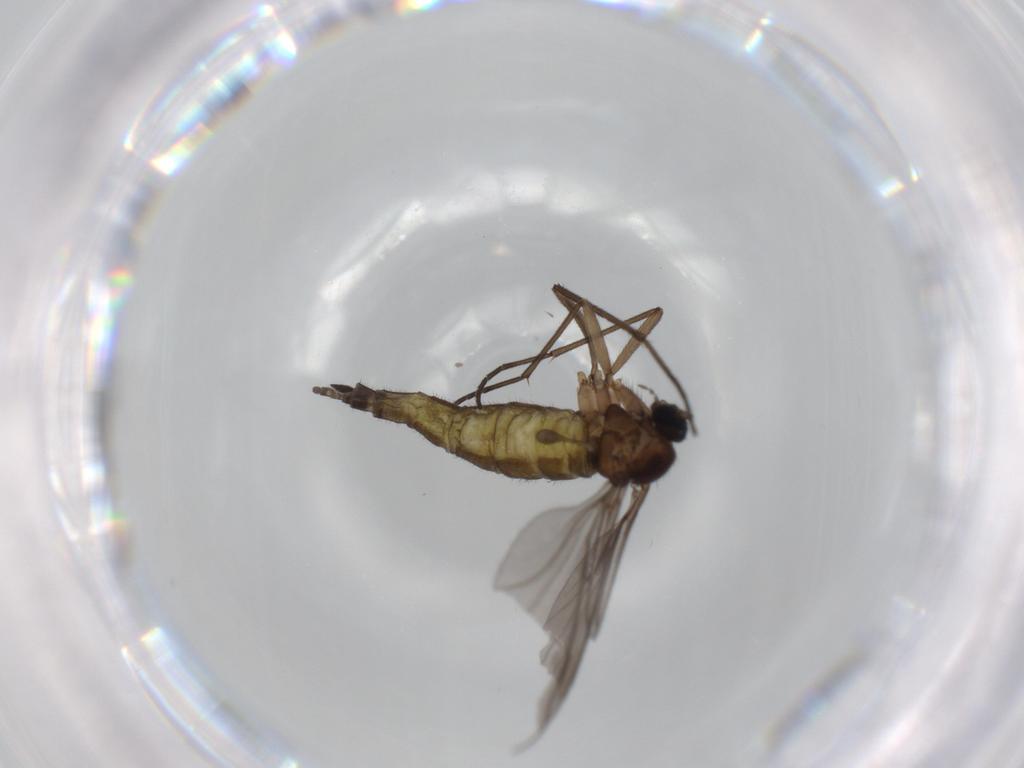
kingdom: Animalia
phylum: Arthropoda
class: Insecta
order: Diptera
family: Sciaridae
